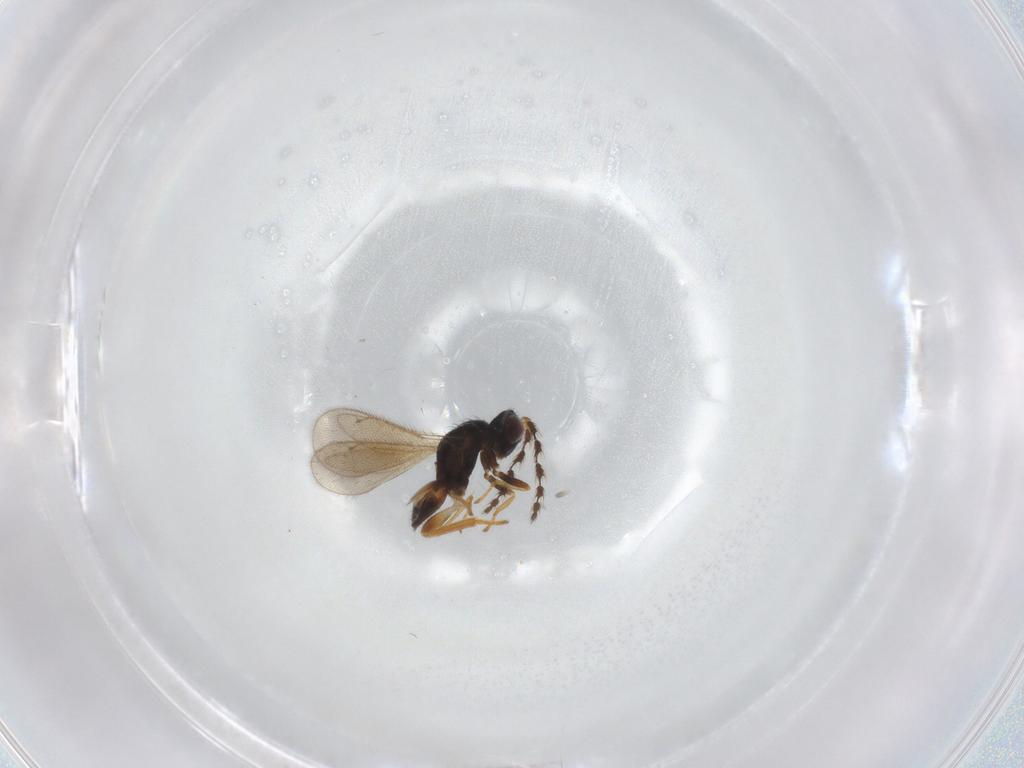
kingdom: Animalia
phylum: Arthropoda
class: Insecta
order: Hymenoptera
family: Eulophidae
